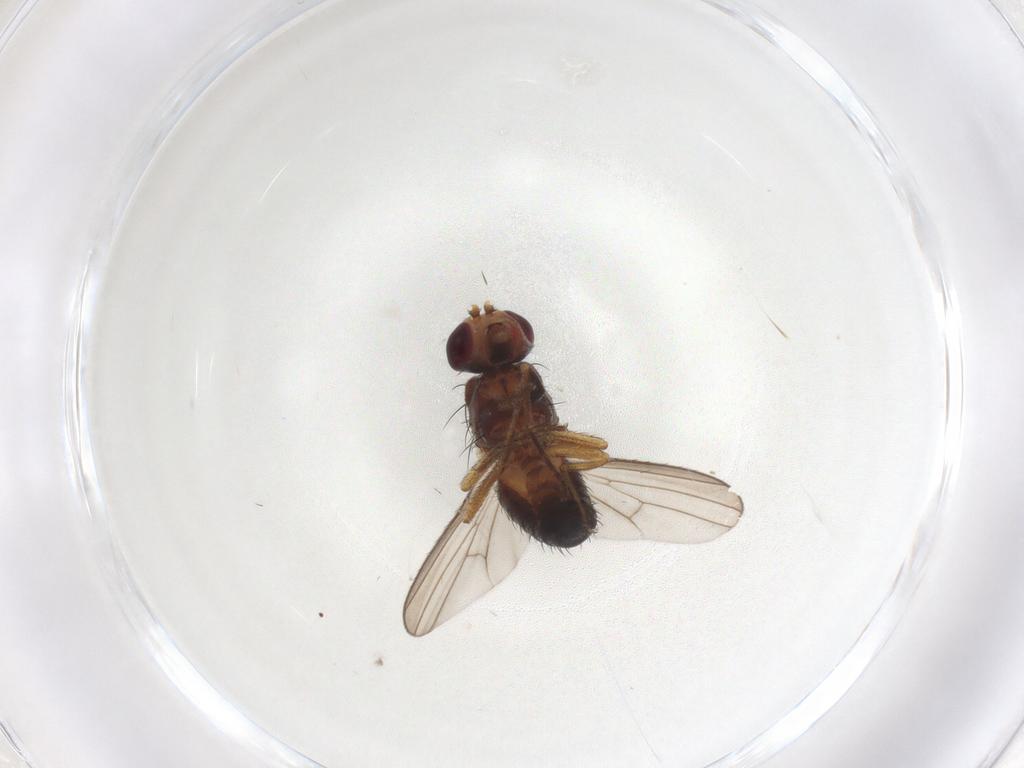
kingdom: Animalia
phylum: Arthropoda
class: Insecta
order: Diptera
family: Heleomyzidae
